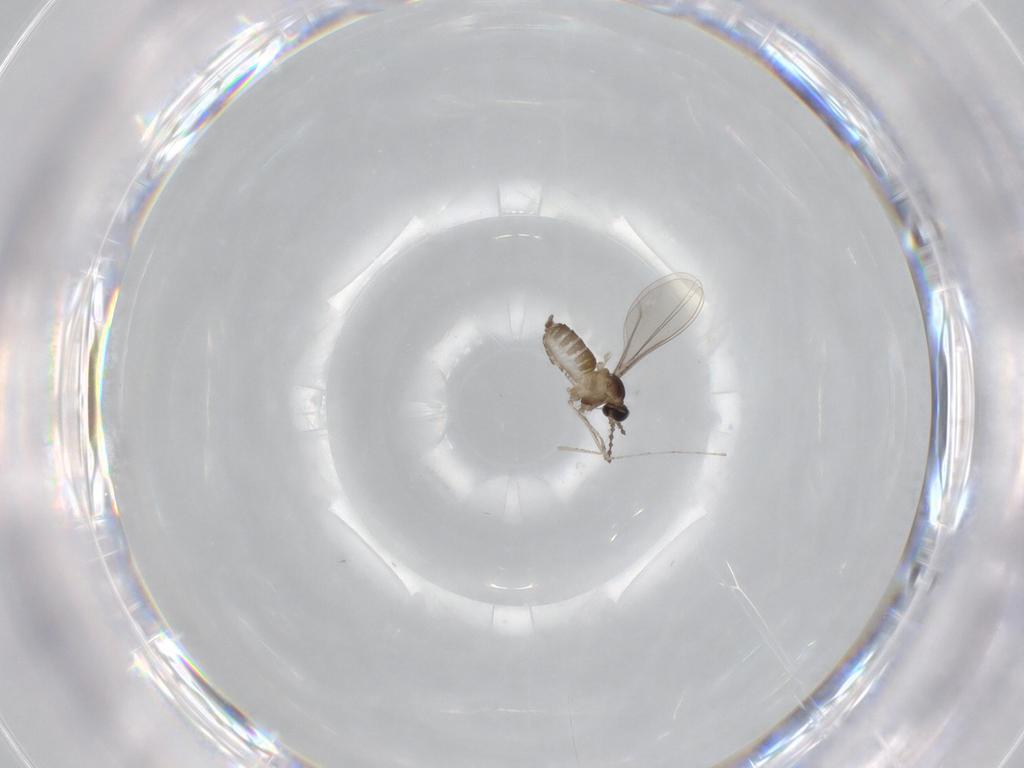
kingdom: Animalia
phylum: Arthropoda
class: Insecta
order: Diptera
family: Cecidomyiidae
